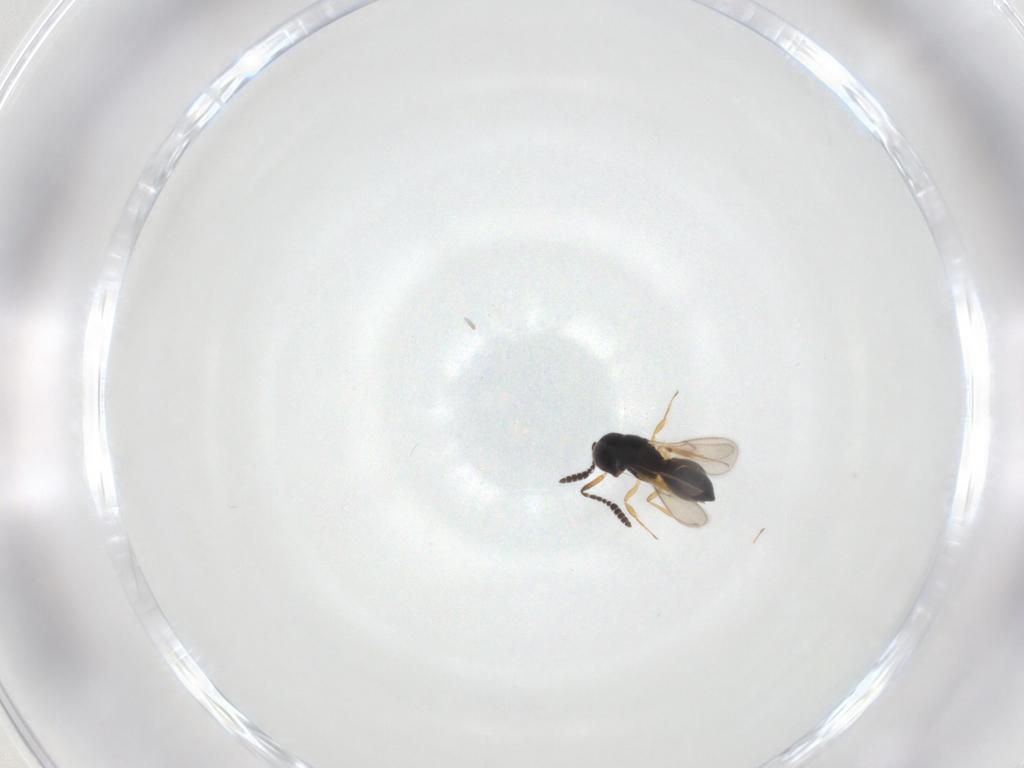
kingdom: Animalia
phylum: Arthropoda
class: Insecta
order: Hymenoptera
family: Scelionidae
